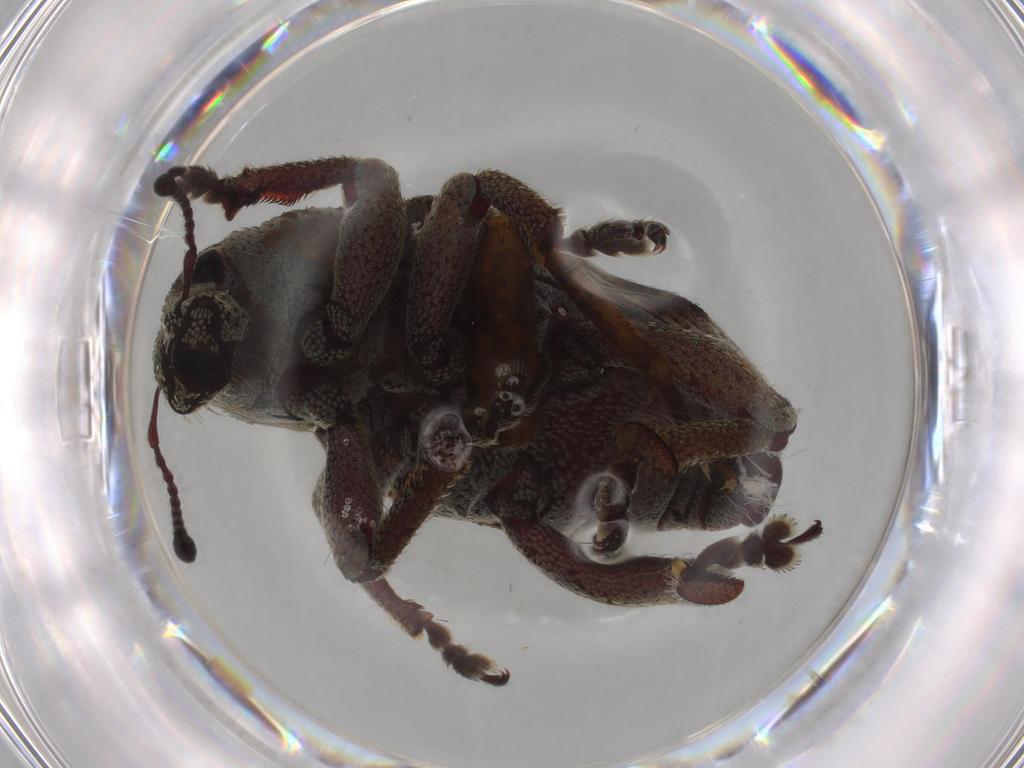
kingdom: Animalia
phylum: Arthropoda
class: Insecta
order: Coleoptera
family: Curculionidae
